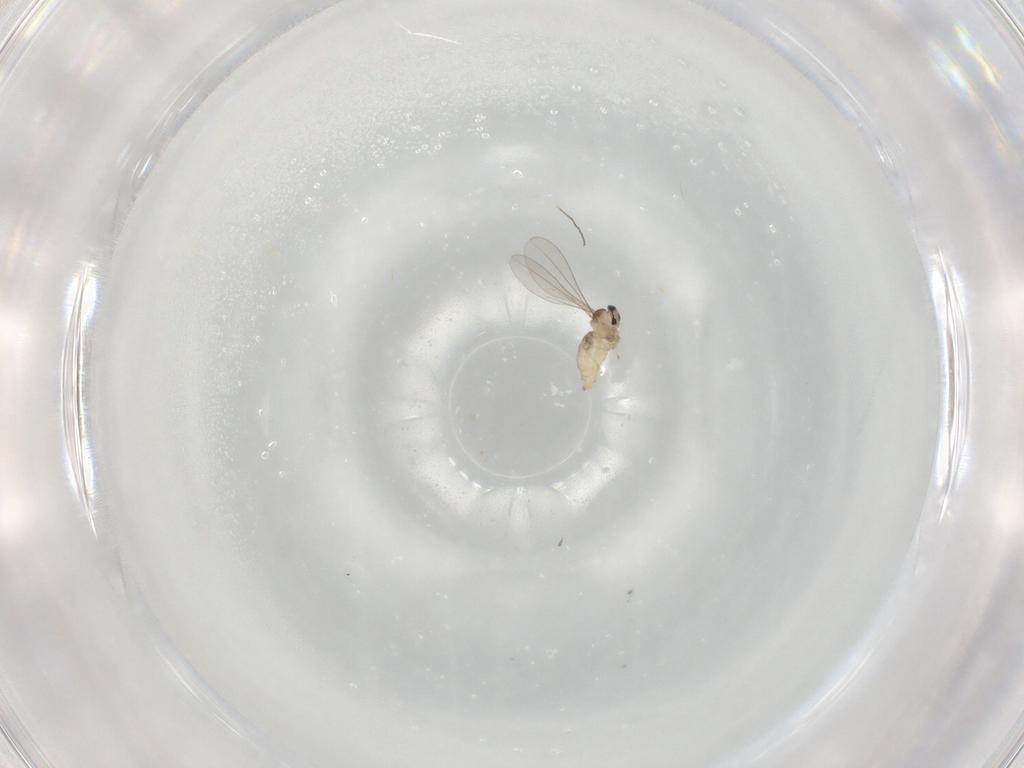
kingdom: Animalia
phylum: Arthropoda
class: Insecta
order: Diptera
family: Cecidomyiidae
